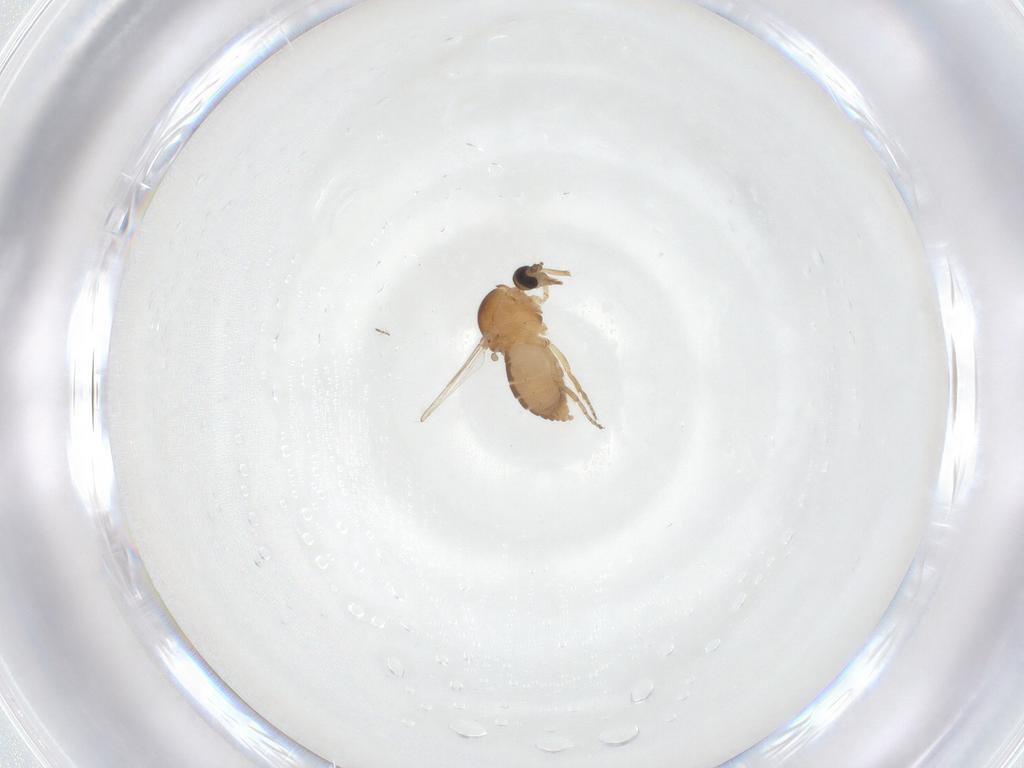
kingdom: Animalia
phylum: Arthropoda
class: Insecta
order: Diptera
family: Ceratopogonidae
